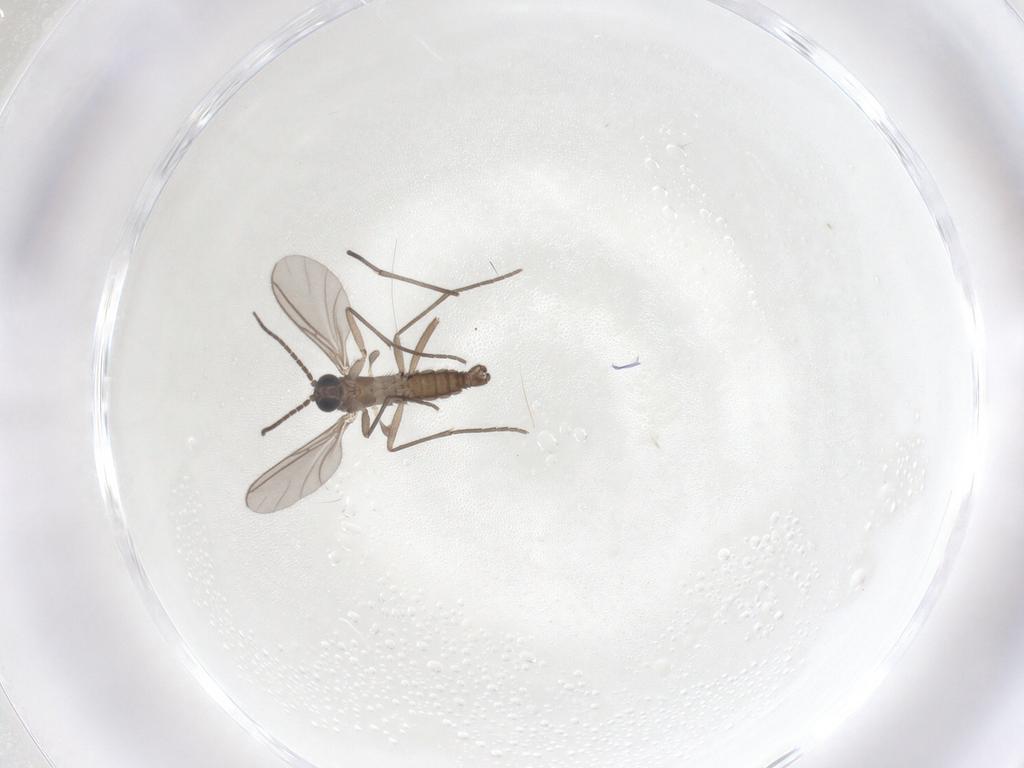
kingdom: Animalia
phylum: Arthropoda
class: Insecta
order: Diptera
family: Sciaridae
